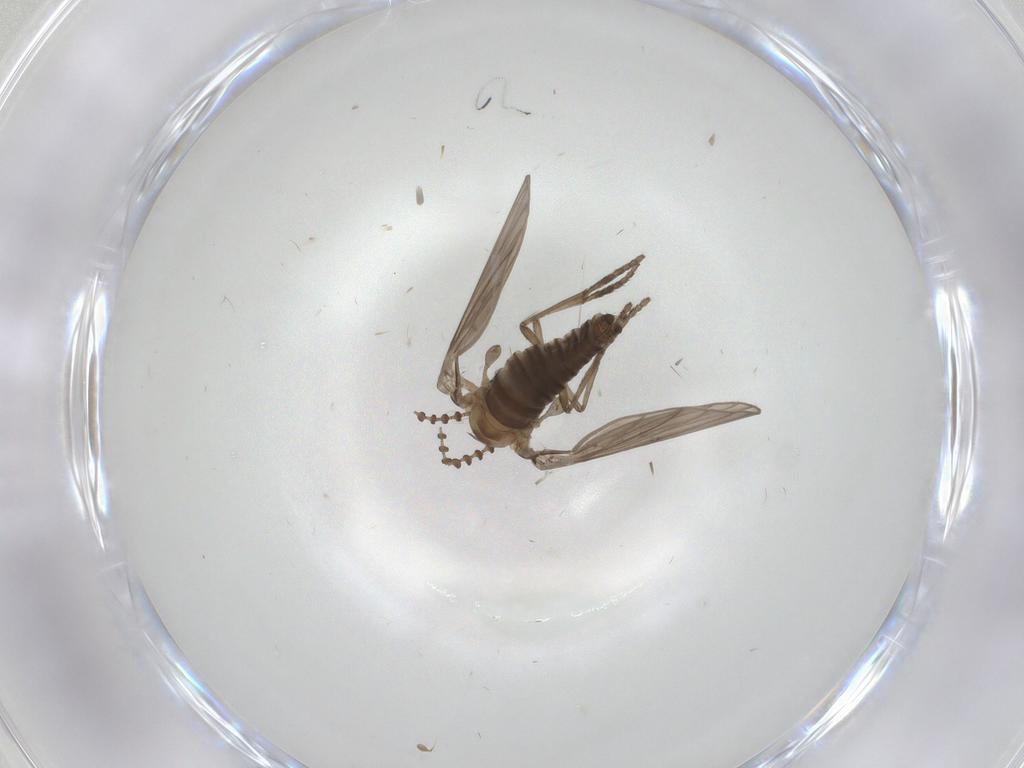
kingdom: Animalia
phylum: Arthropoda
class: Insecta
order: Diptera
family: Psychodidae
